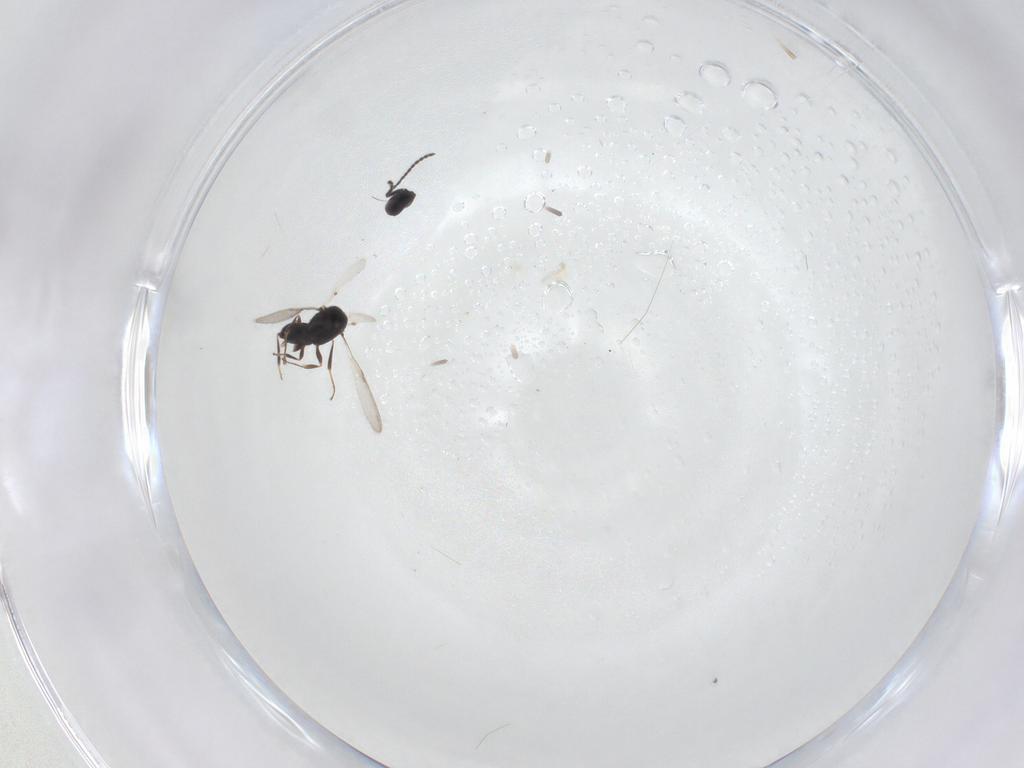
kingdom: Animalia
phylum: Arthropoda
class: Insecta
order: Hymenoptera
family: Scelionidae
